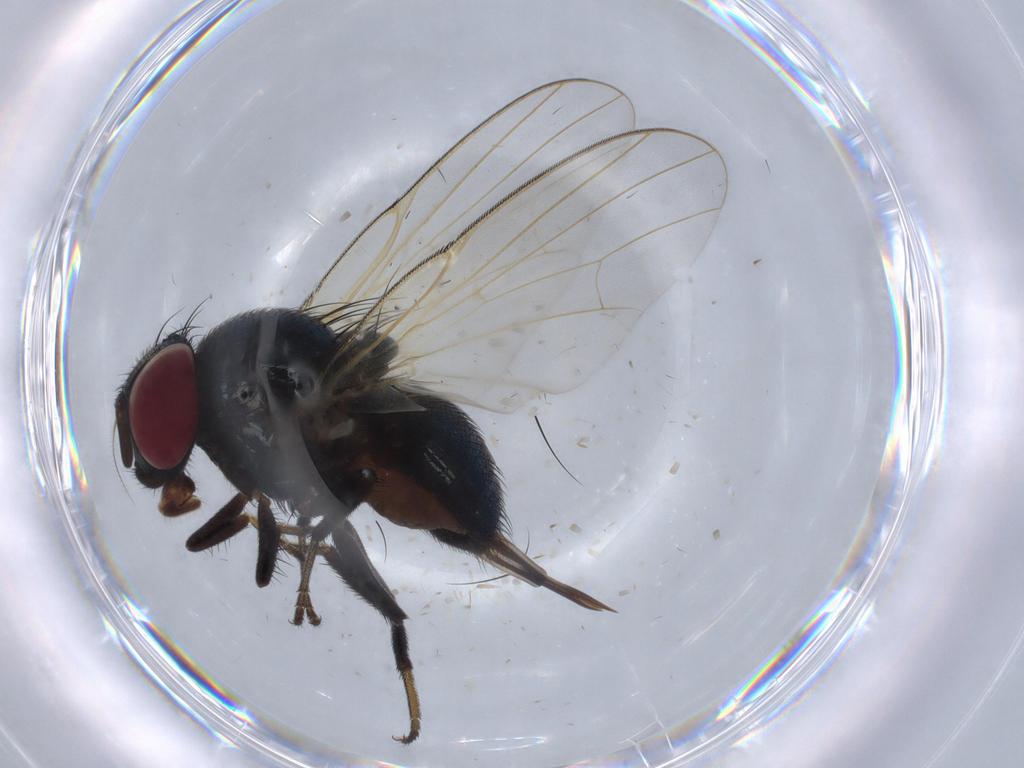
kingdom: Animalia
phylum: Arthropoda
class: Insecta
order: Diptera
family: Lonchaeidae
